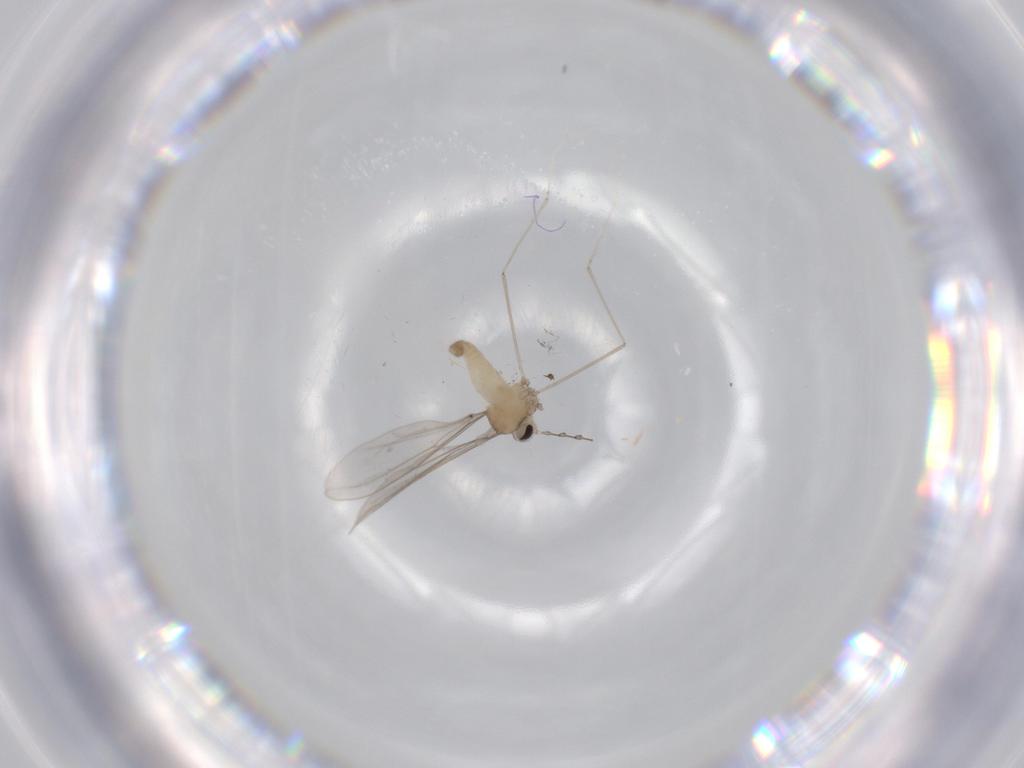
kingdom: Animalia
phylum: Arthropoda
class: Insecta
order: Diptera
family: Cecidomyiidae
